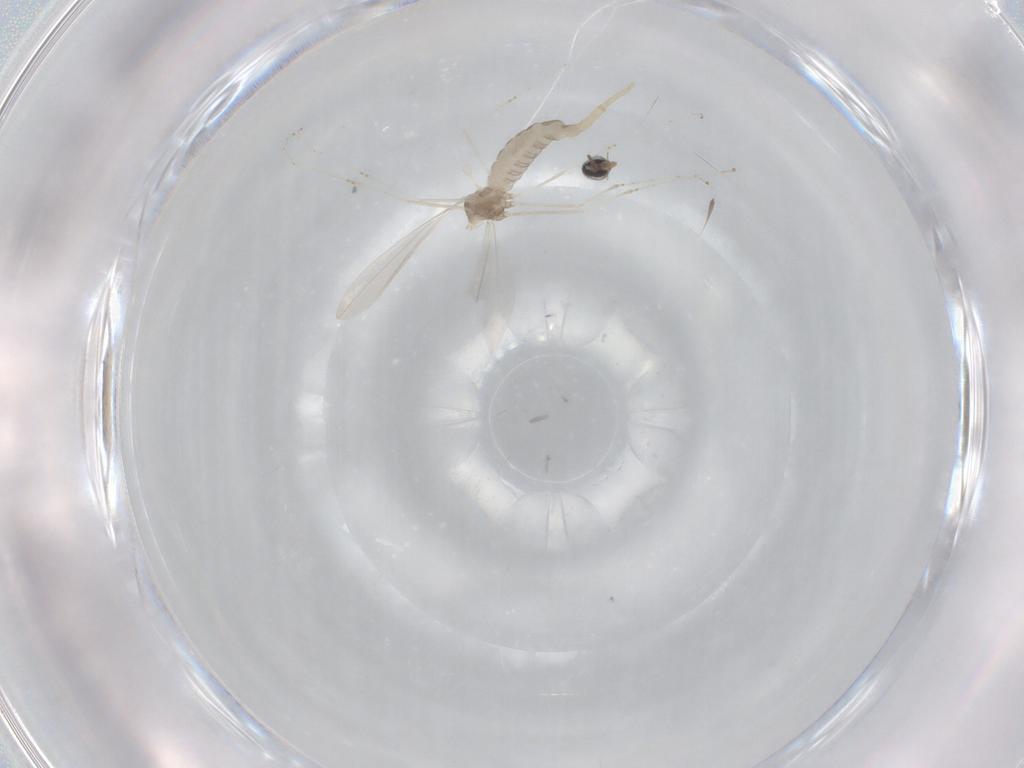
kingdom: Animalia
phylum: Arthropoda
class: Insecta
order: Diptera
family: Cecidomyiidae
